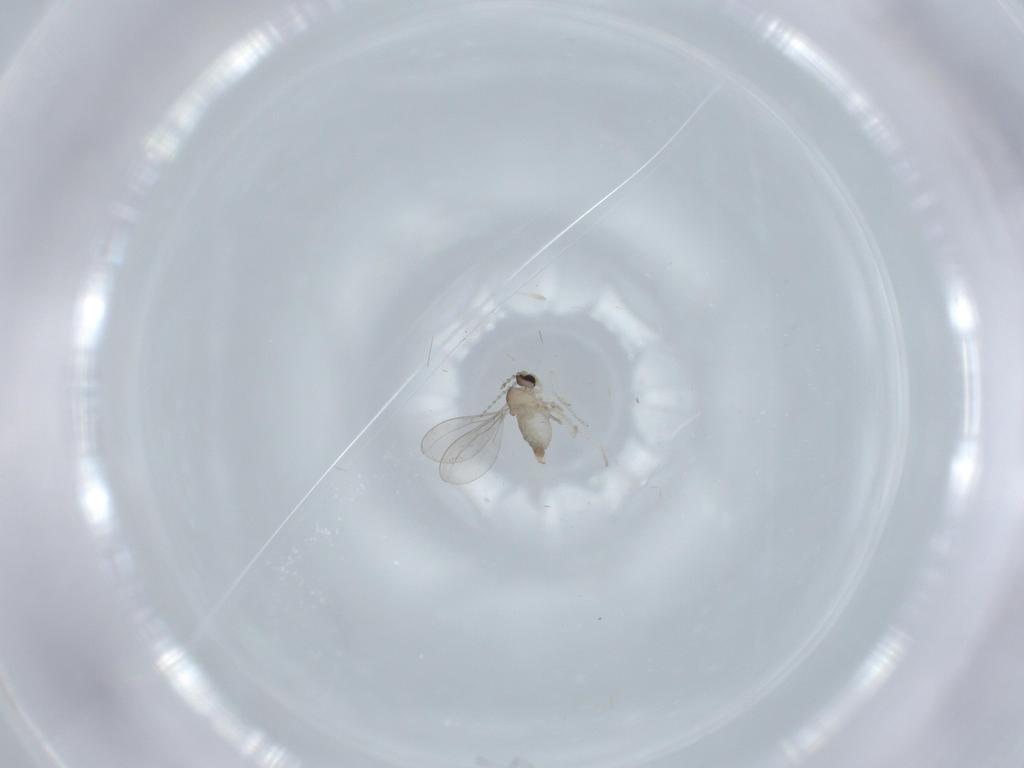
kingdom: Animalia
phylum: Arthropoda
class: Insecta
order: Diptera
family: Cecidomyiidae
